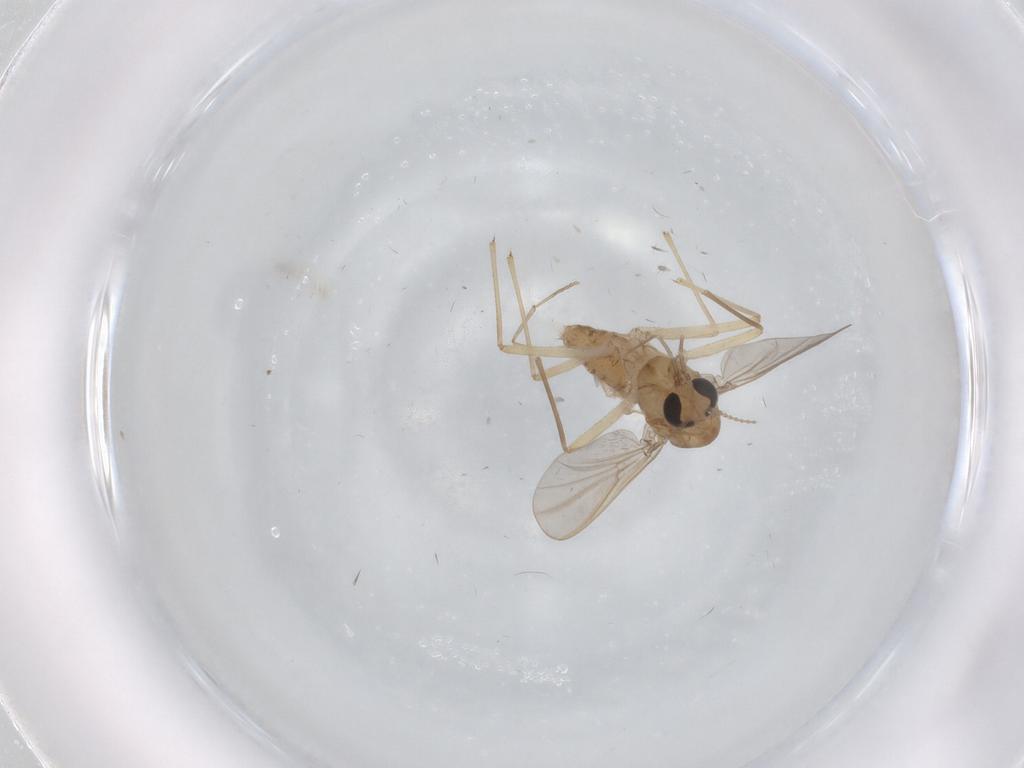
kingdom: Animalia
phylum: Arthropoda
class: Insecta
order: Diptera
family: Chironomidae
